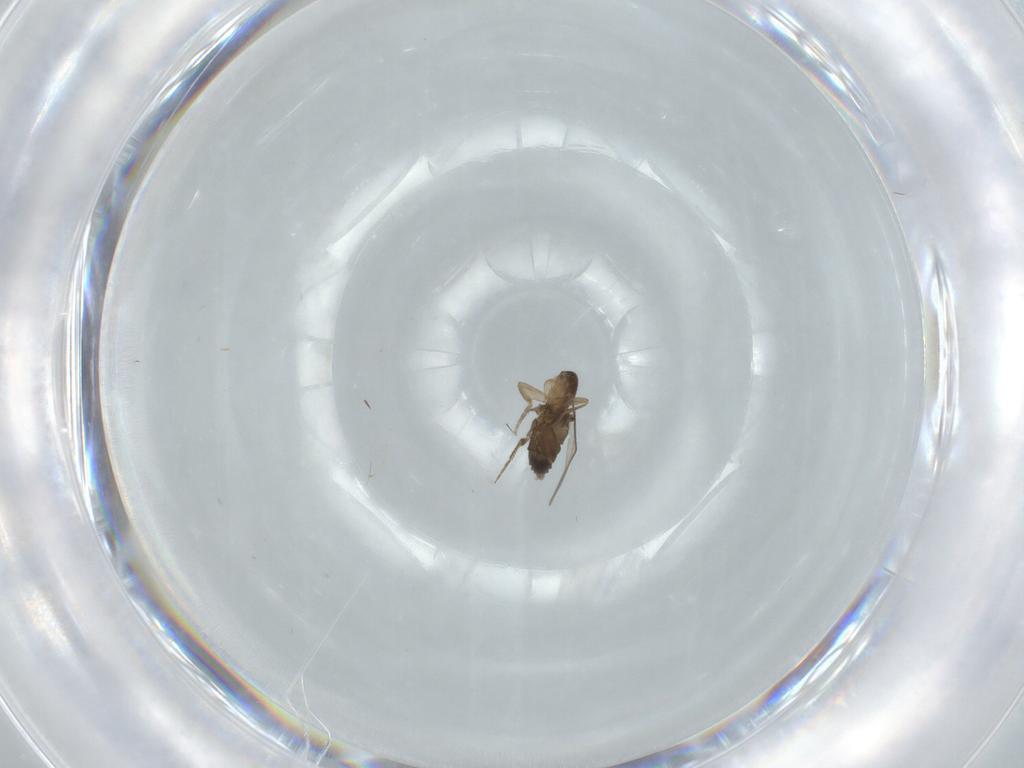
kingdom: Animalia
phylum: Arthropoda
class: Insecta
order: Diptera
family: Phoridae
